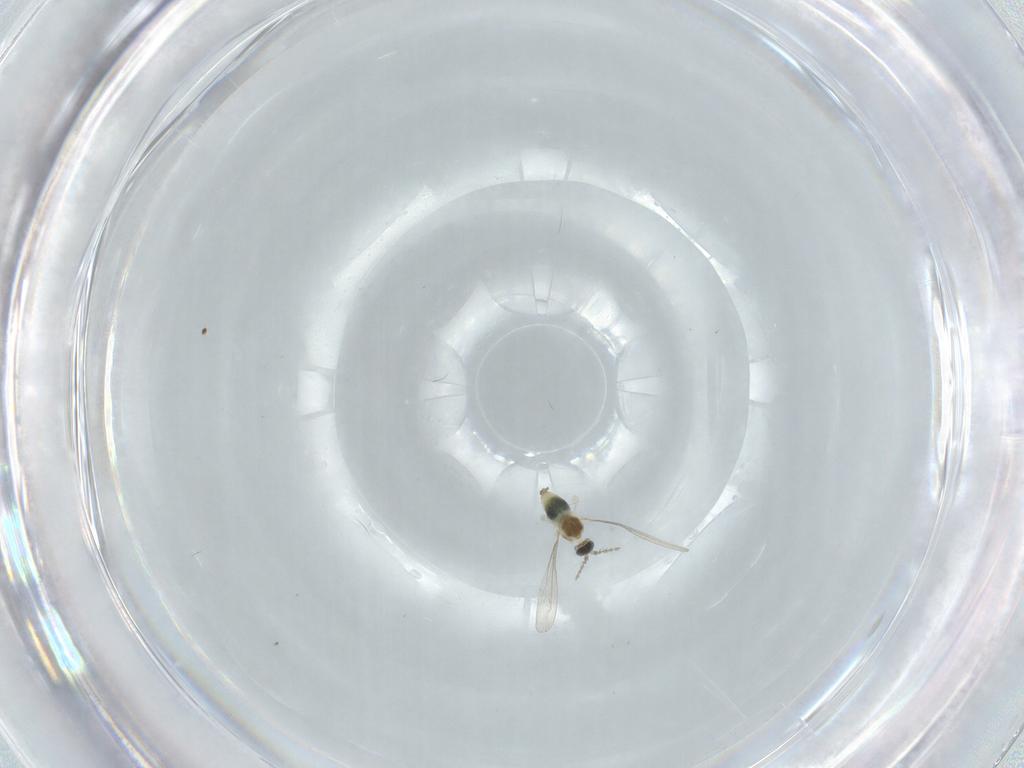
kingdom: Animalia
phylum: Arthropoda
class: Insecta
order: Diptera
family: Cecidomyiidae
